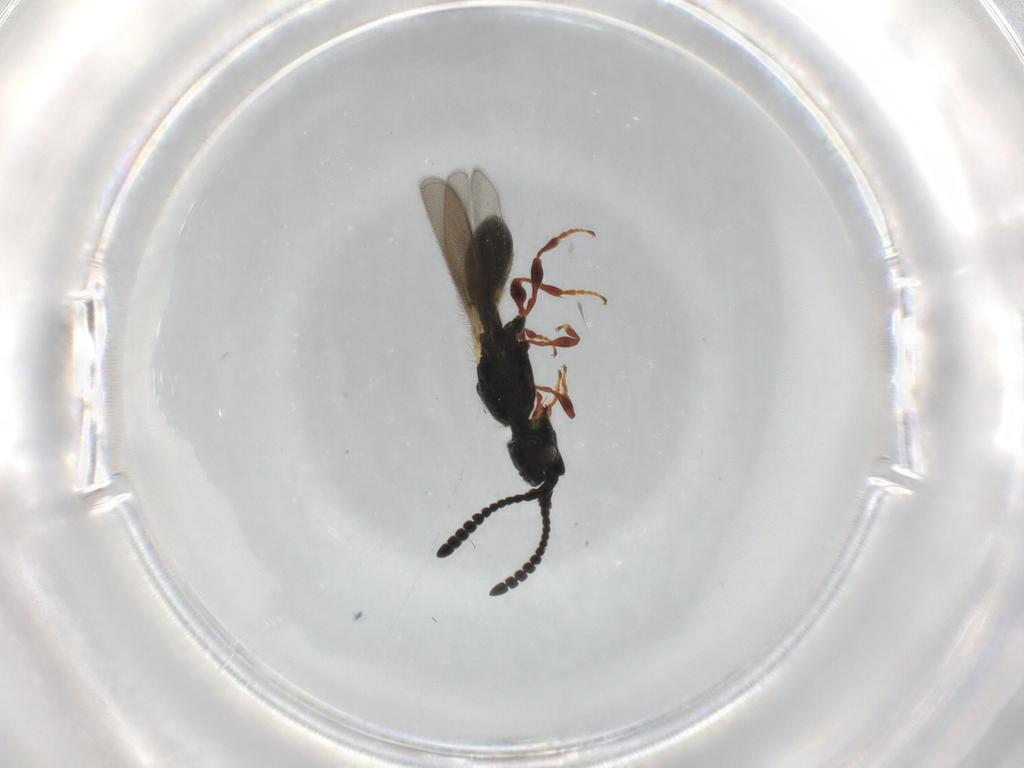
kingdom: Animalia
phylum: Arthropoda
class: Insecta
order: Hymenoptera
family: Diapriidae
